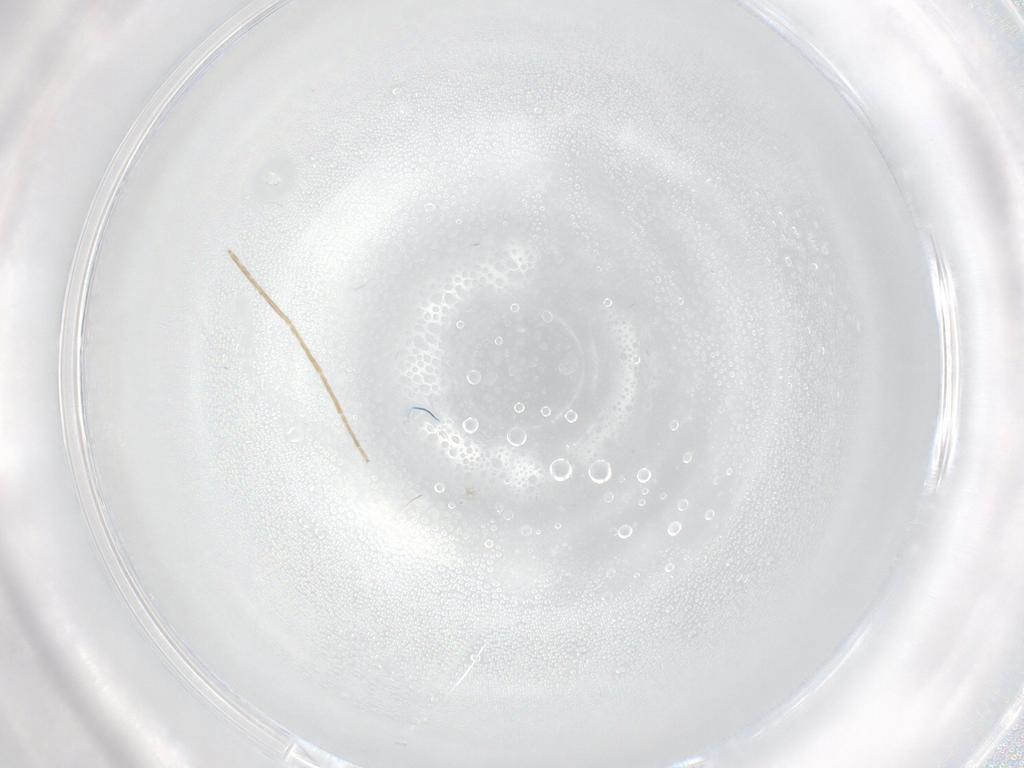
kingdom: Animalia
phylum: Arthropoda
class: Insecta
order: Diptera
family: Chironomidae
